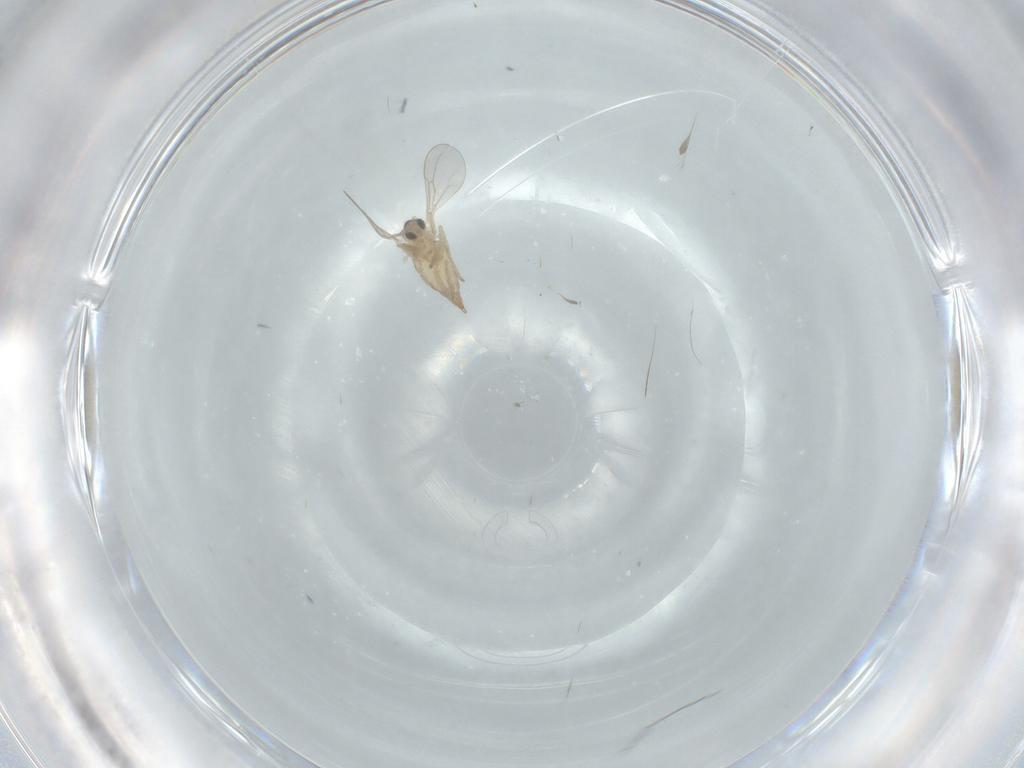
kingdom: Animalia
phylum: Arthropoda
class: Insecta
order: Diptera
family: Cecidomyiidae
